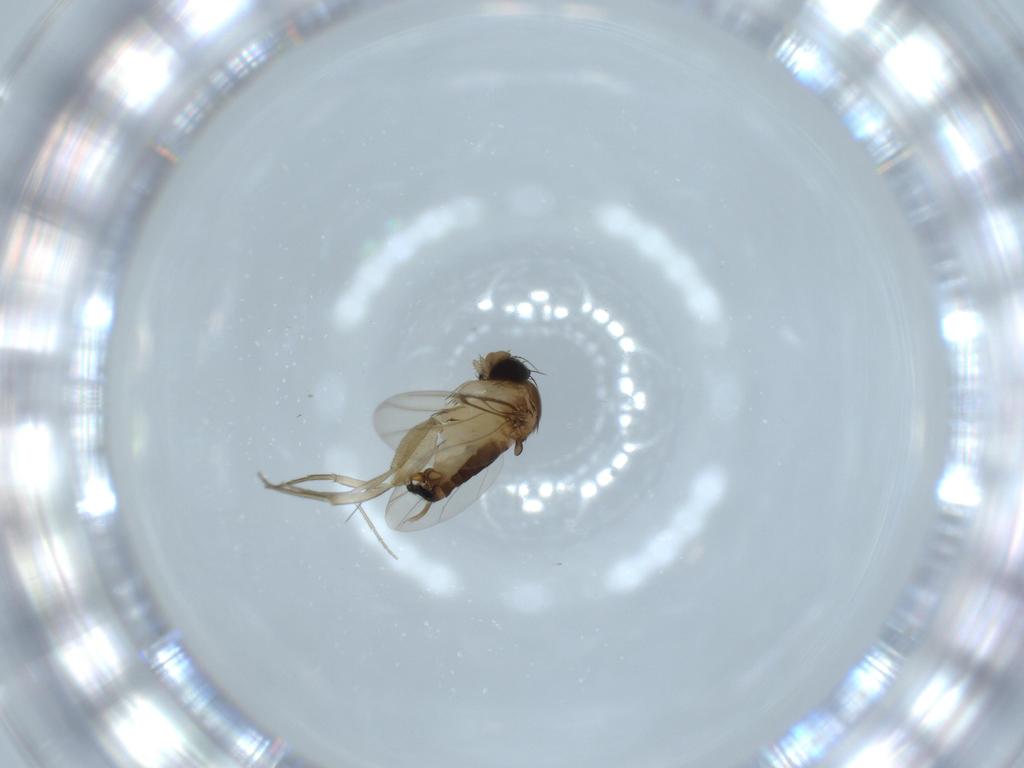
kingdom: Animalia
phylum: Arthropoda
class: Insecta
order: Diptera
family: Phoridae
